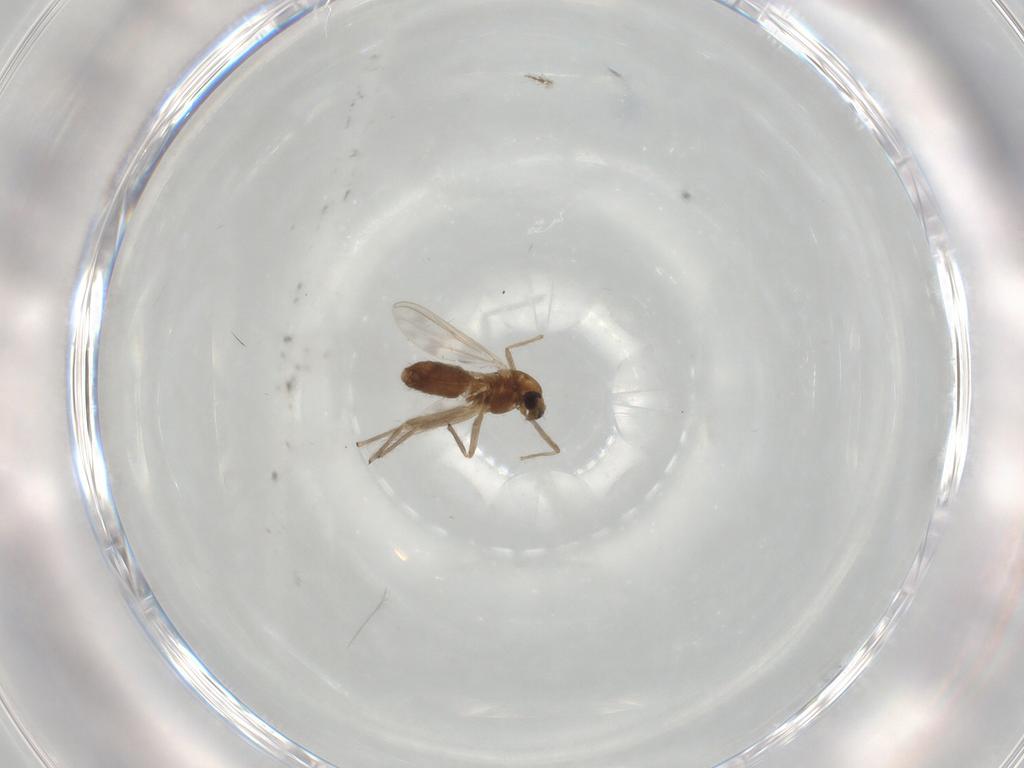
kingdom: Animalia
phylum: Arthropoda
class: Insecta
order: Diptera
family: Chironomidae
